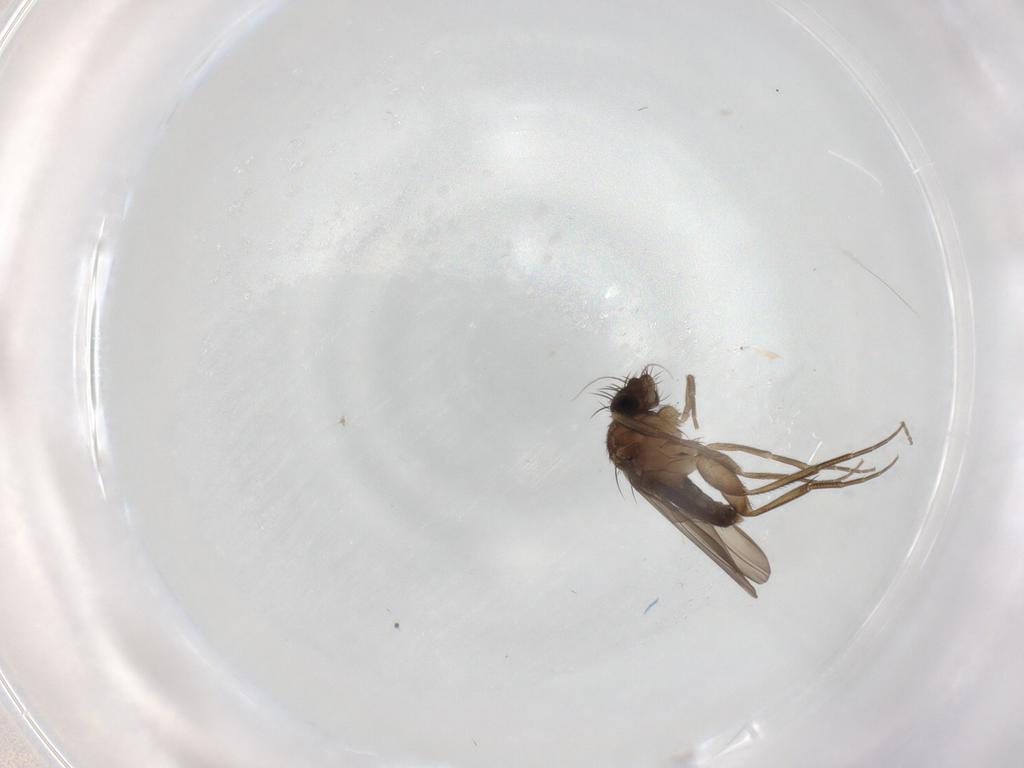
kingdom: Animalia
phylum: Arthropoda
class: Insecta
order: Diptera
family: Phoridae
